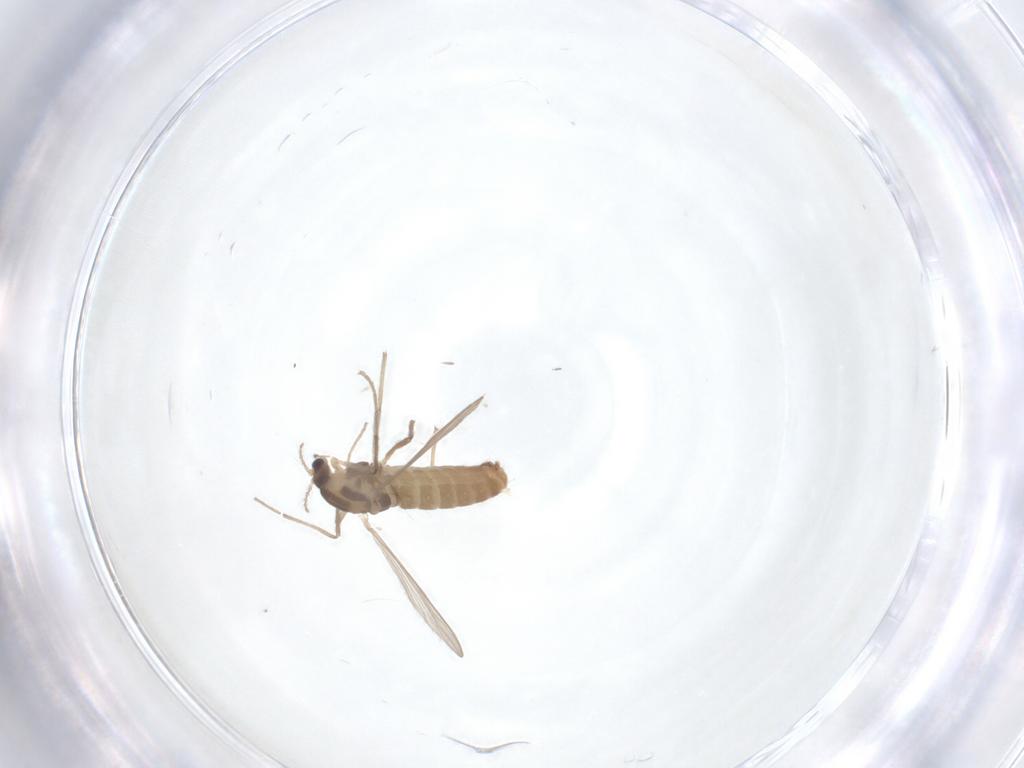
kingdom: Animalia
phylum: Arthropoda
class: Insecta
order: Diptera
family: Chironomidae
